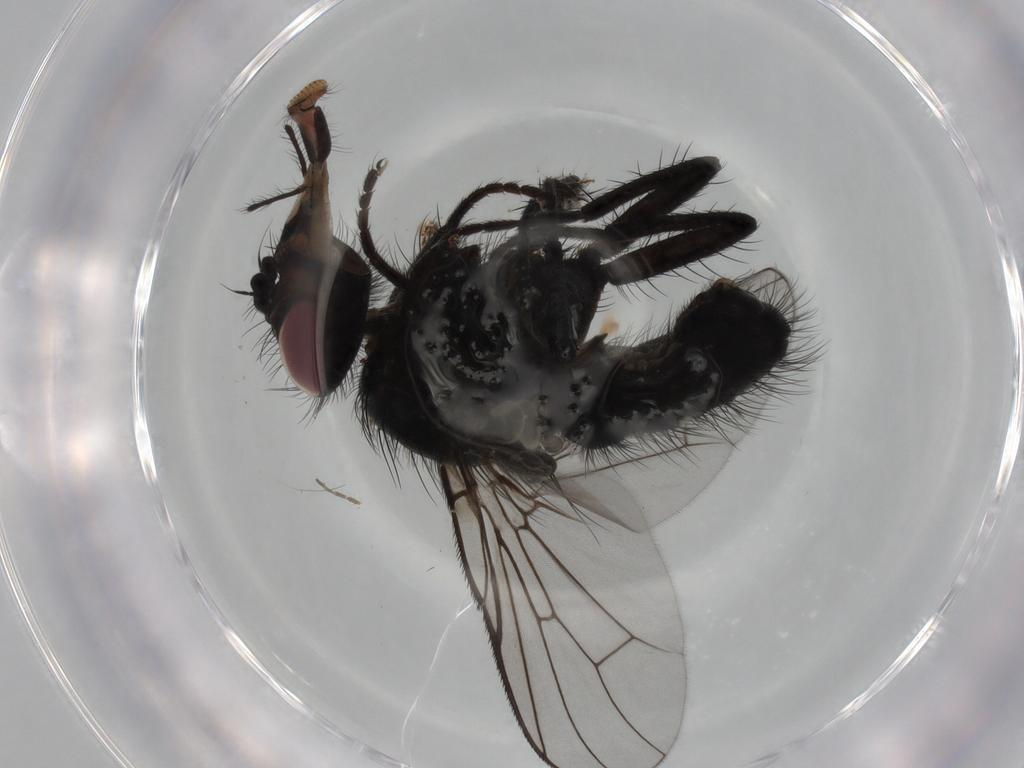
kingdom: Animalia
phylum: Arthropoda
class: Insecta
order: Diptera
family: Muscidae
